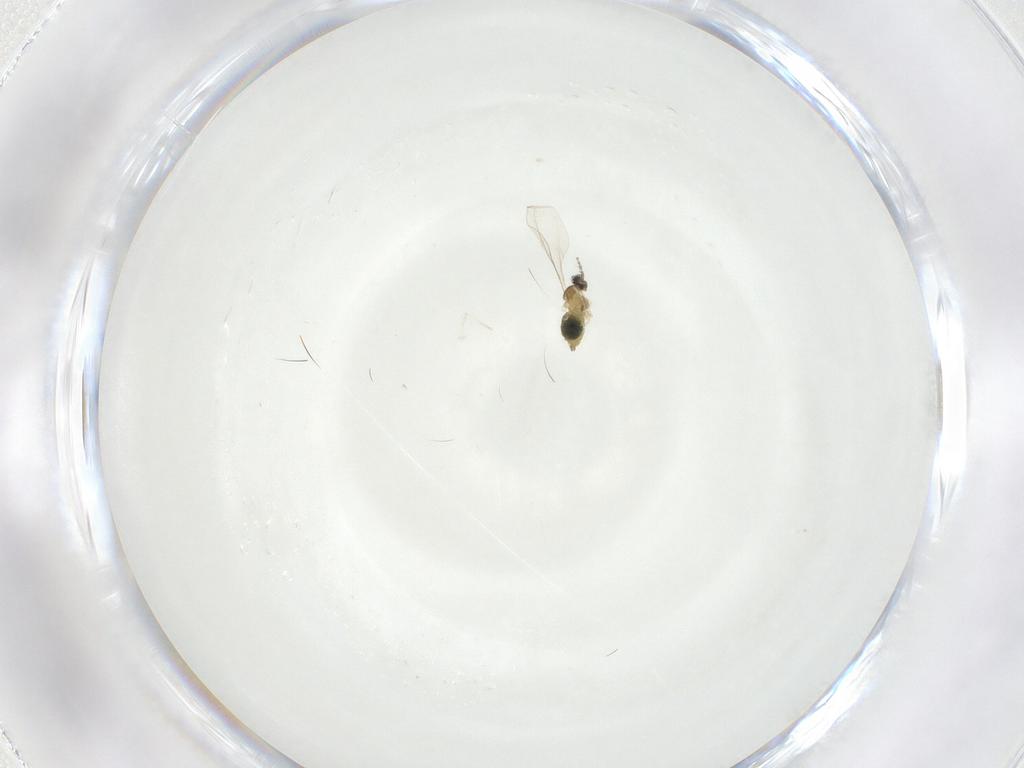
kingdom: Animalia
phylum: Arthropoda
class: Insecta
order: Diptera
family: Cecidomyiidae
